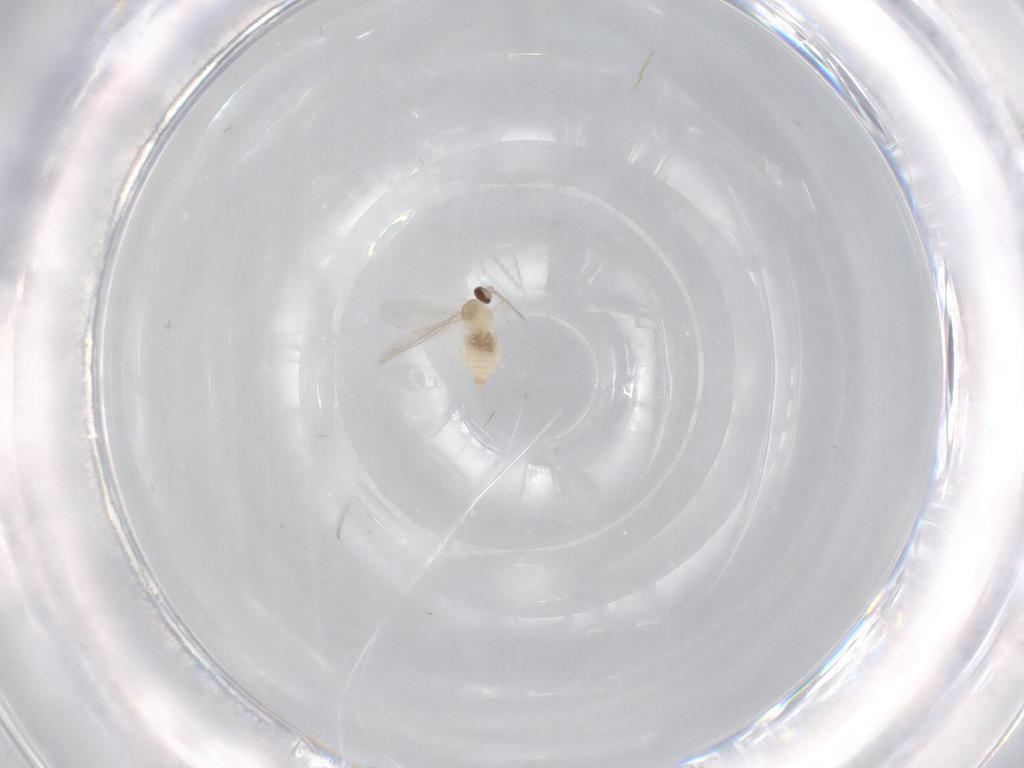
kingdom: Animalia
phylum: Arthropoda
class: Insecta
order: Diptera
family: Cecidomyiidae
